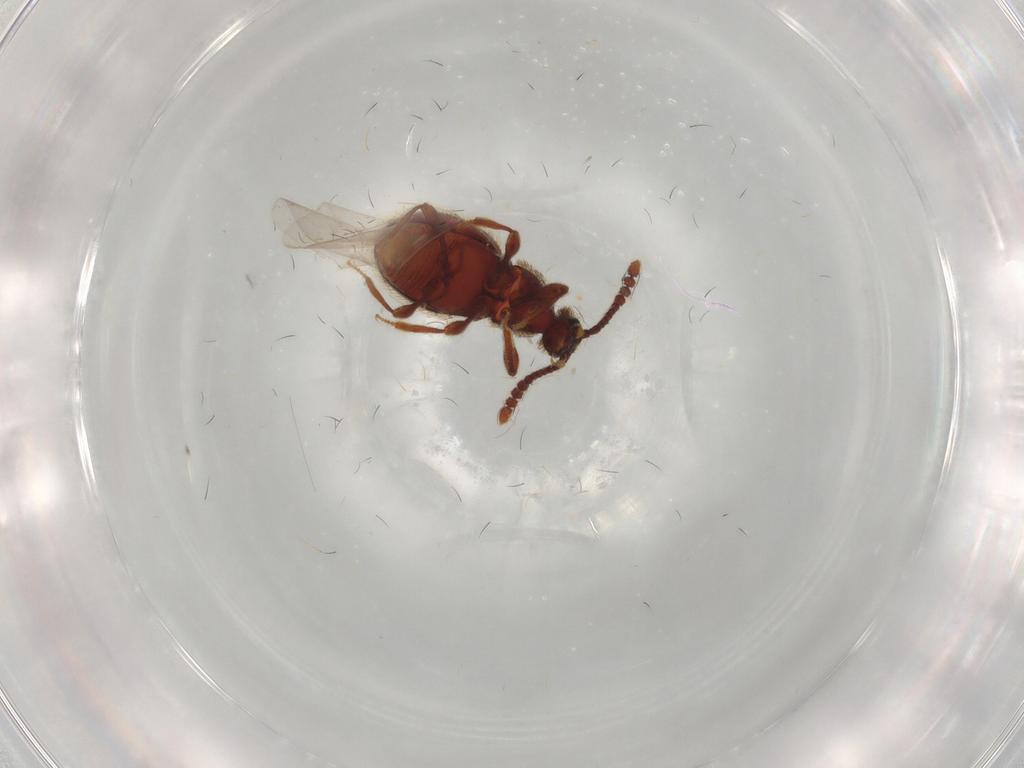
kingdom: Animalia
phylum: Arthropoda
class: Insecta
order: Coleoptera
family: Staphylinidae
